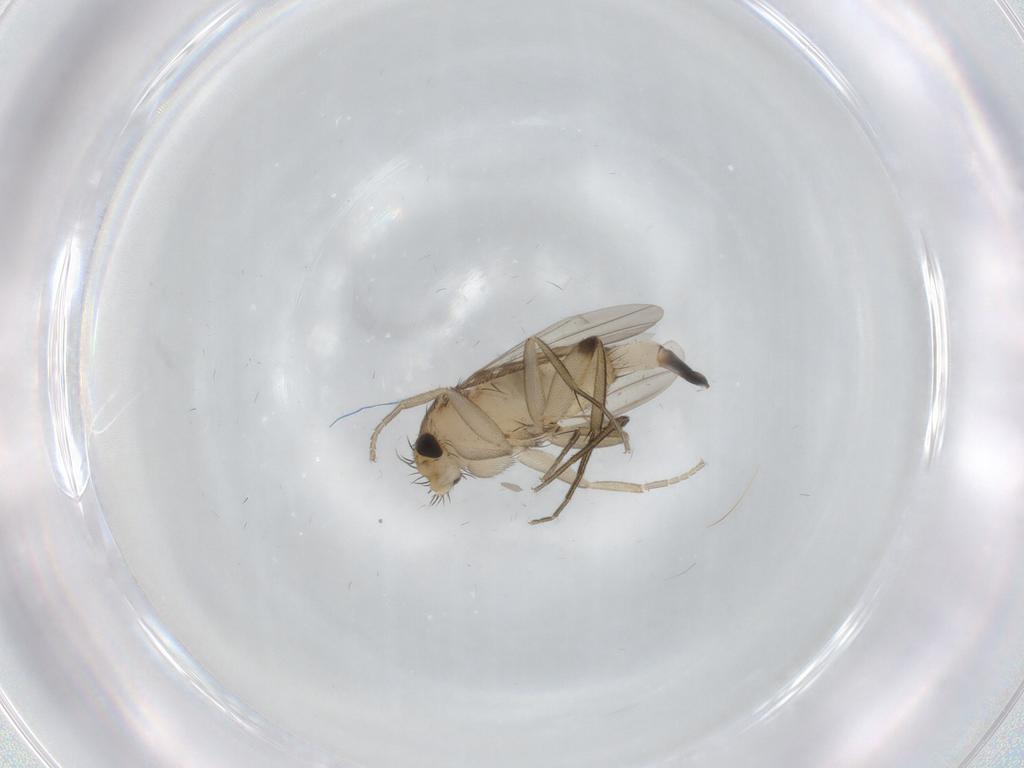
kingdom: Animalia
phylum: Arthropoda
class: Insecta
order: Diptera
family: Phoridae
